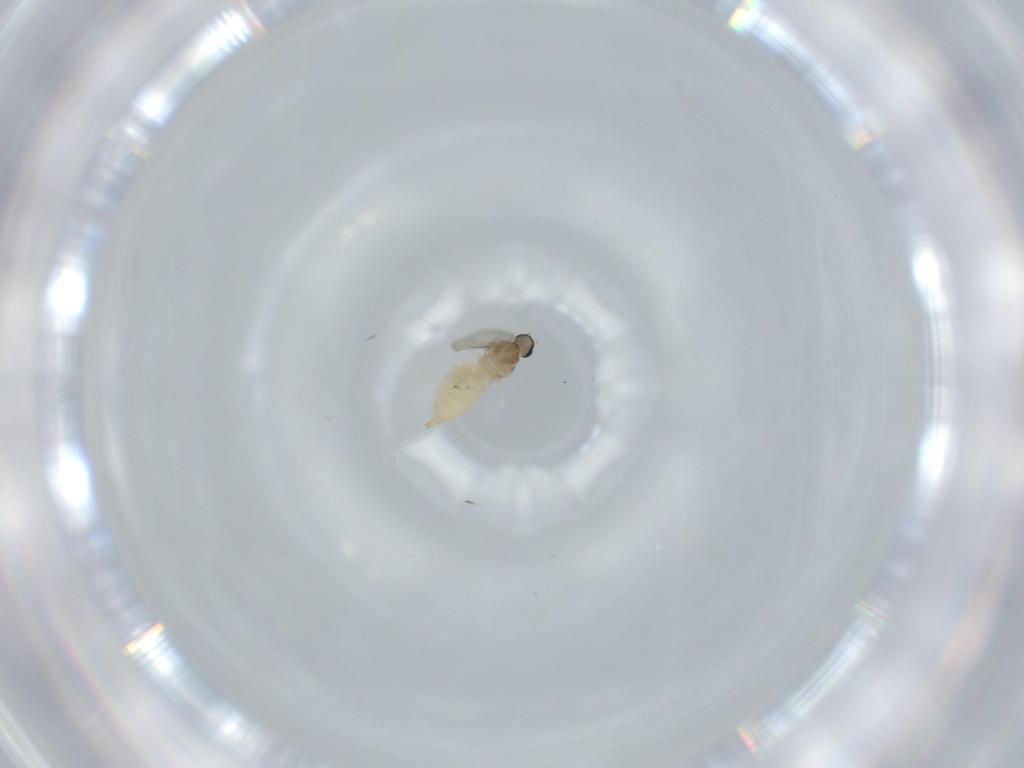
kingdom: Animalia
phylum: Arthropoda
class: Insecta
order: Diptera
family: Cecidomyiidae
